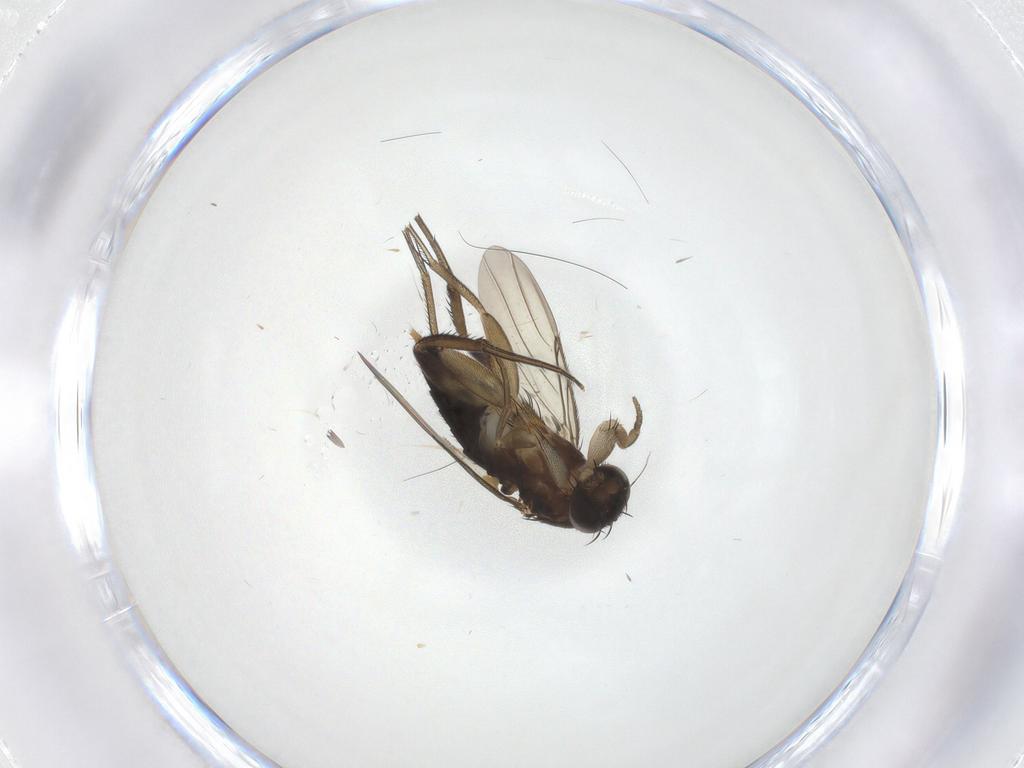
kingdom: Animalia
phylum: Arthropoda
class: Insecta
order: Diptera
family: Phoridae
